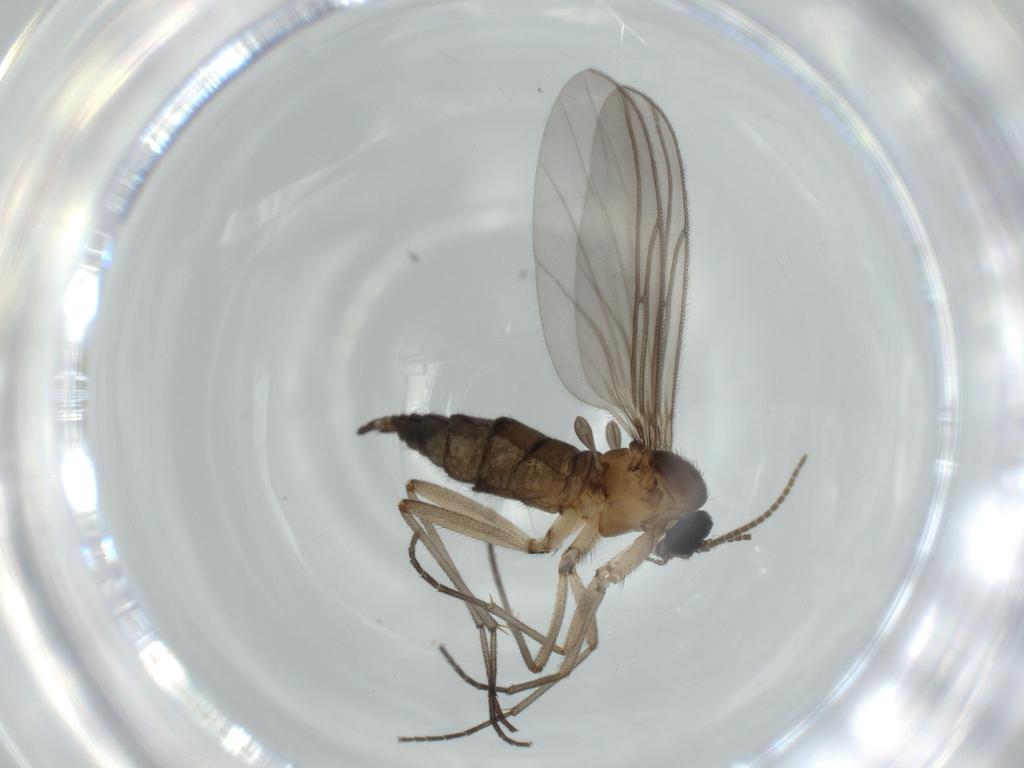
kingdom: Animalia
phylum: Arthropoda
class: Insecta
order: Diptera
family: Sciaridae
